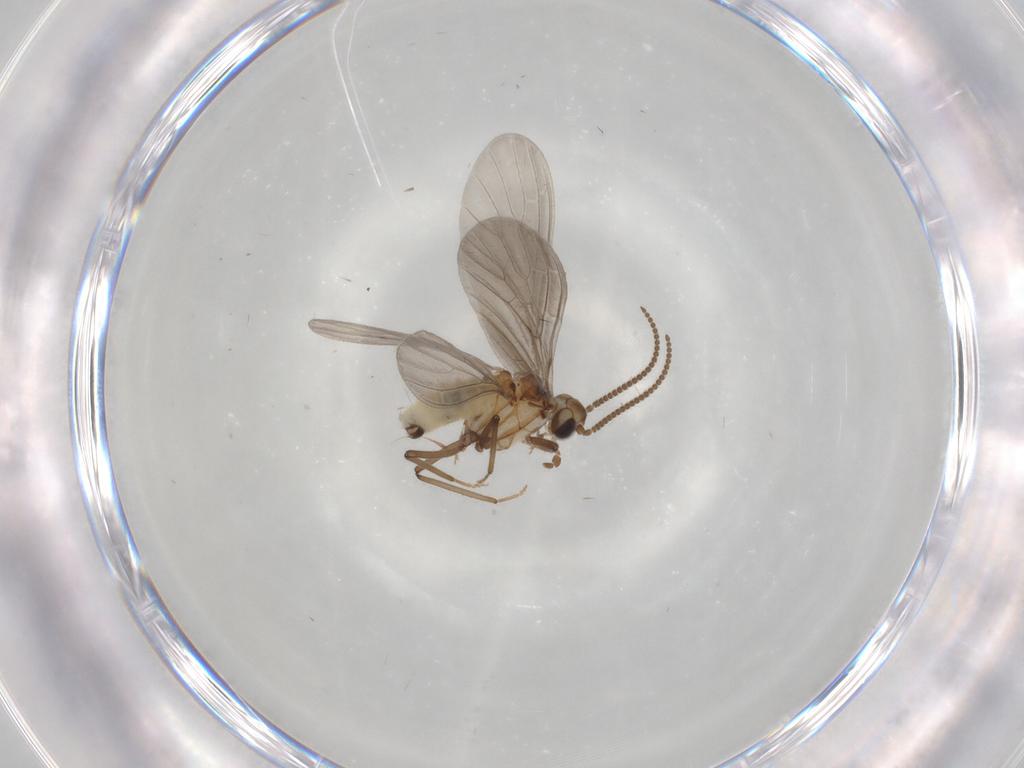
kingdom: Animalia
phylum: Arthropoda
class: Insecta
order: Neuroptera
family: Coniopterygidae
